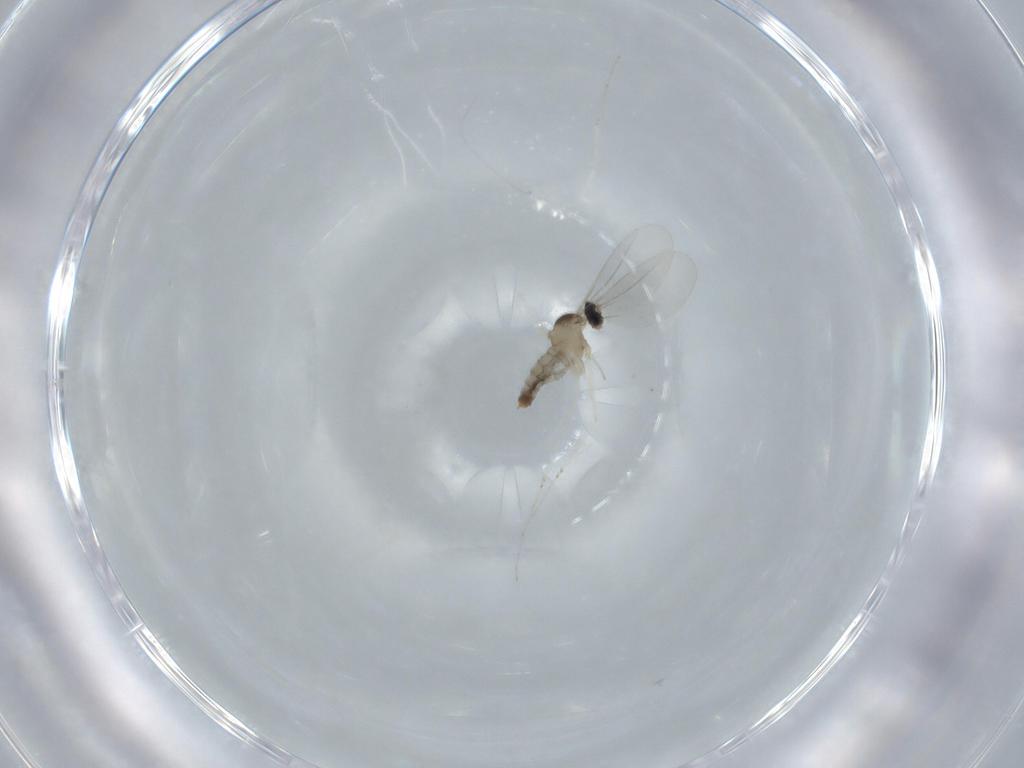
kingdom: Animalia
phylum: Arthropoda
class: Insecta
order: Diptera
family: Cecidomyiidae
